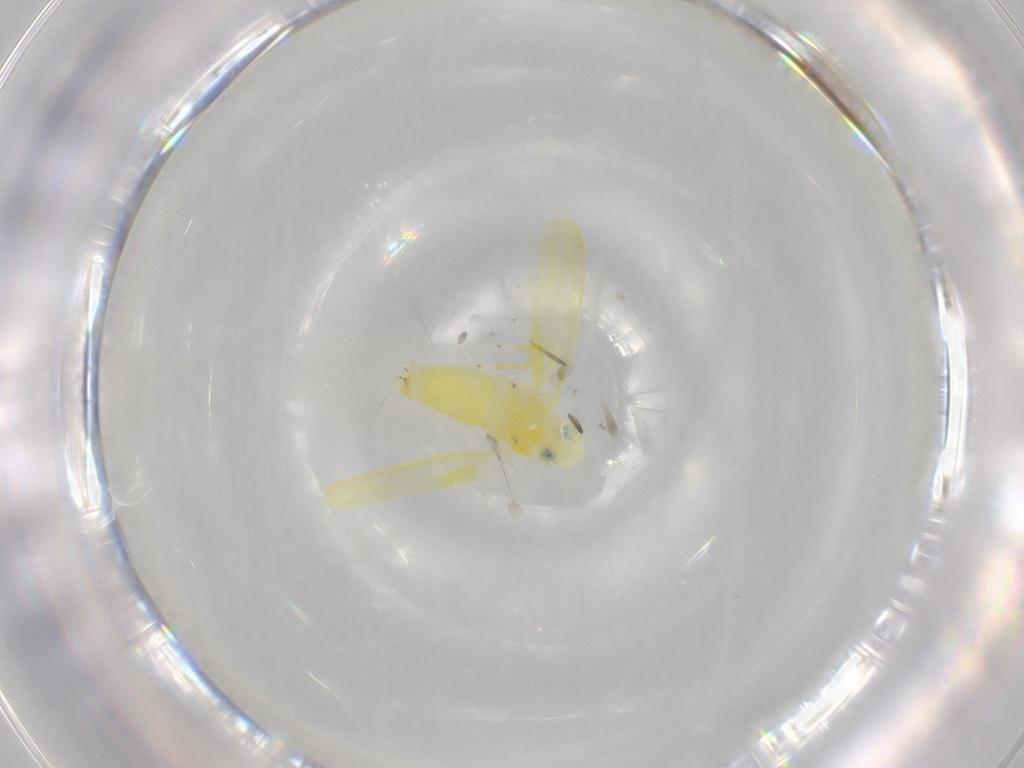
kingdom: Animalia
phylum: Arthropoda
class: Insecta
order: Hemiptera
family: Cicadellidae
